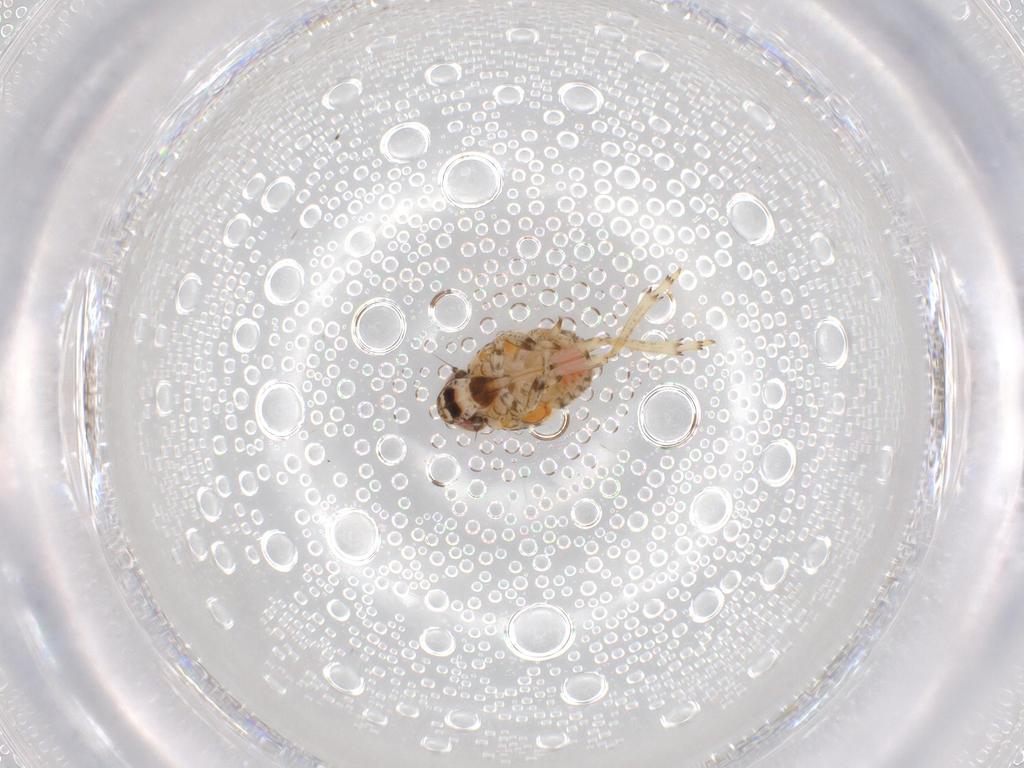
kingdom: Animalia
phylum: Arthropoda
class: Insecta
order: Hemiptera
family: Issidae
